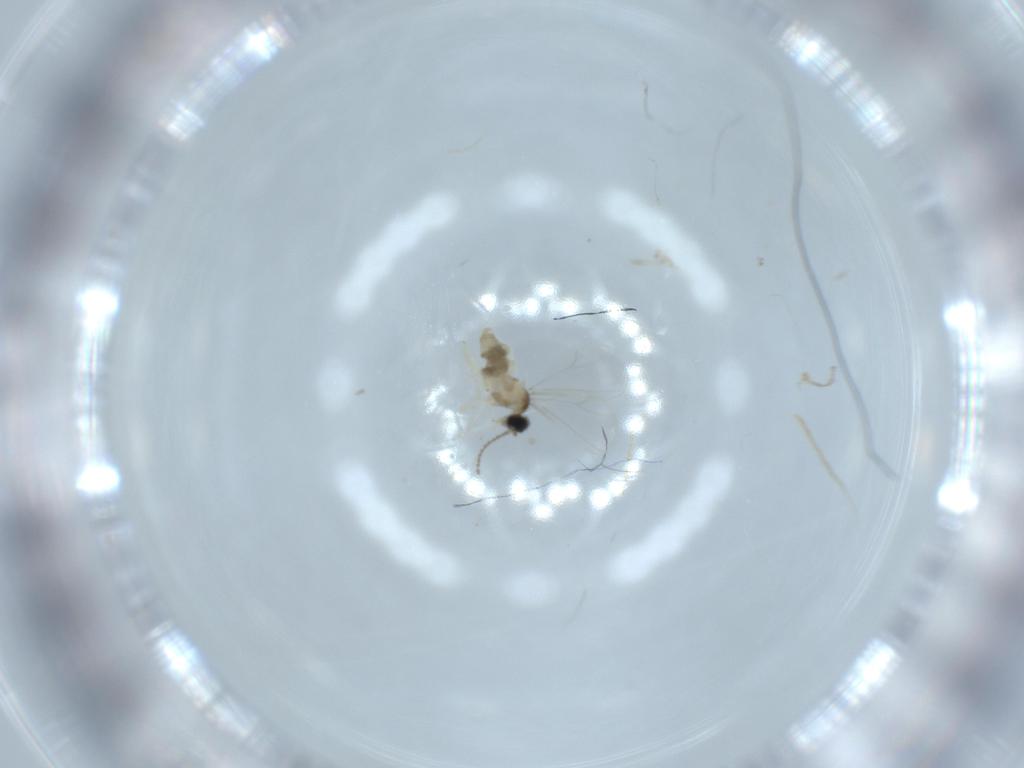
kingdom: Animalia
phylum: Arthropoda
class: Insecta
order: Diptera
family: Cecidomyiidae
